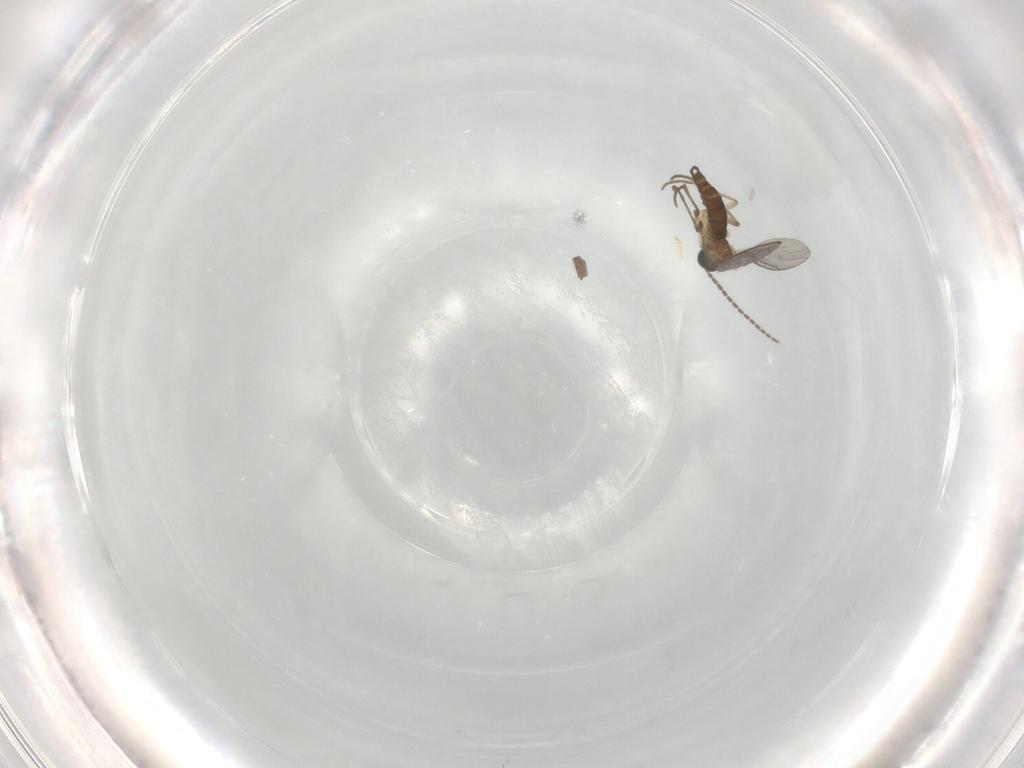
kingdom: Animalia
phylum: Arthropoda
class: Insecta
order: Diptera
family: Sciaridae
